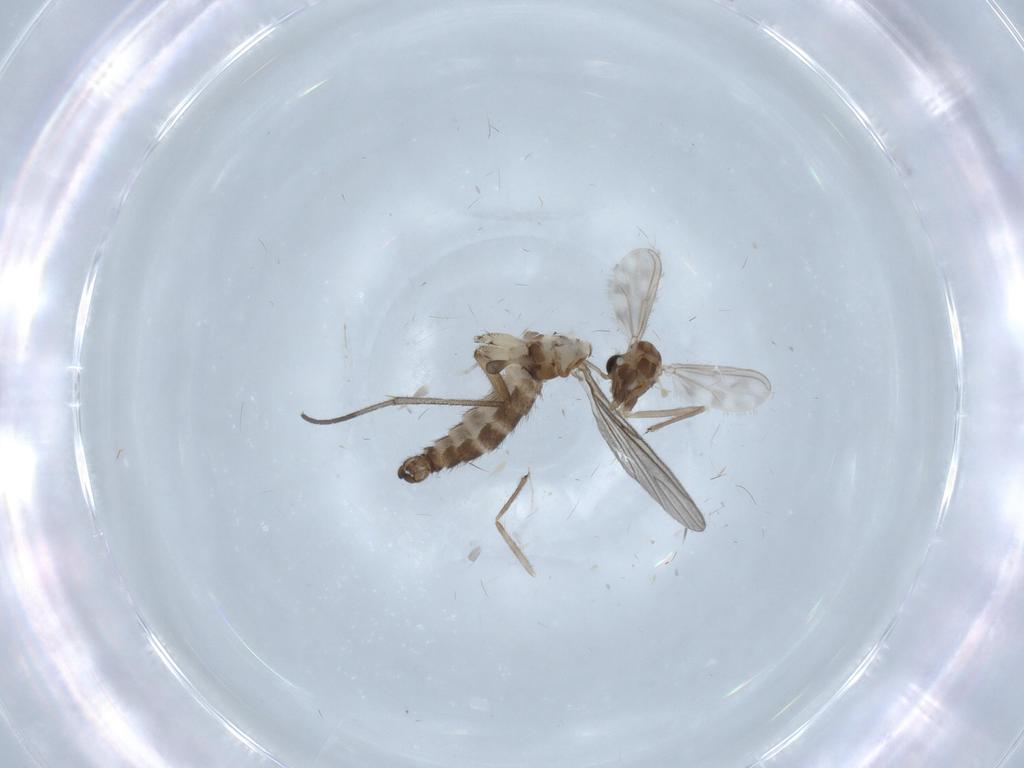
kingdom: Animalia
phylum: Arthropoda
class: Insecta
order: Diptera
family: Chironomidae
